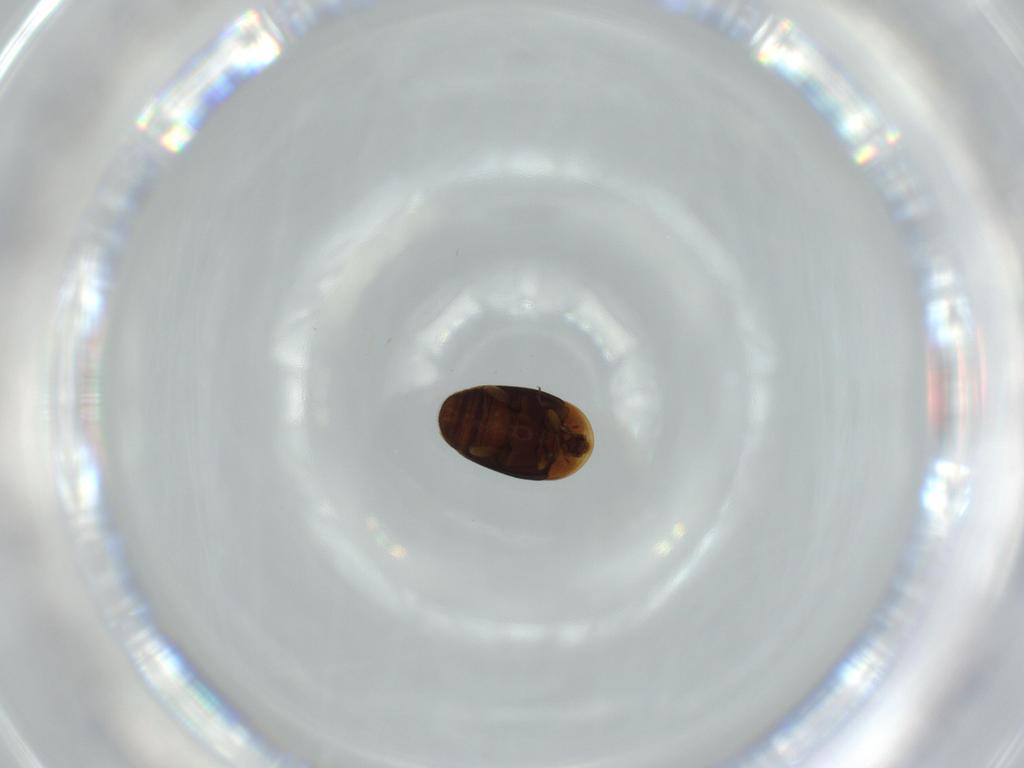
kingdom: Animalia
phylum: Arthropoda
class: Insecta
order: Coleoptera
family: Corylophidae
